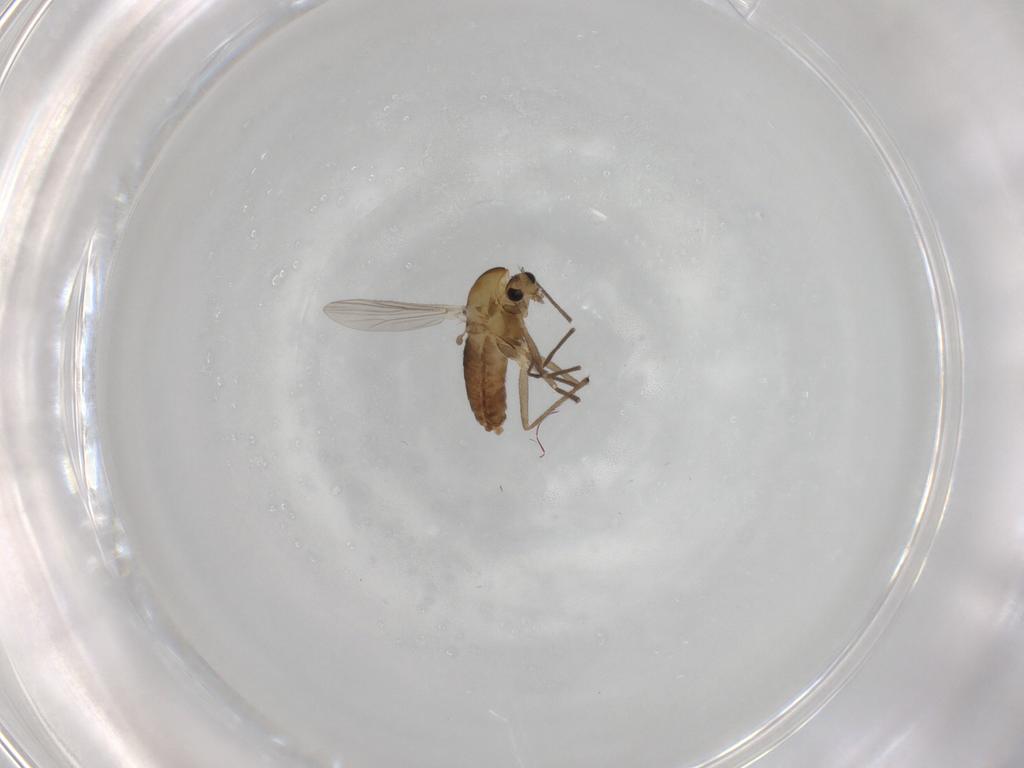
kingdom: Animalia
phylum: Arthropoda
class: Insecta
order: Diptera
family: Chironomidae
